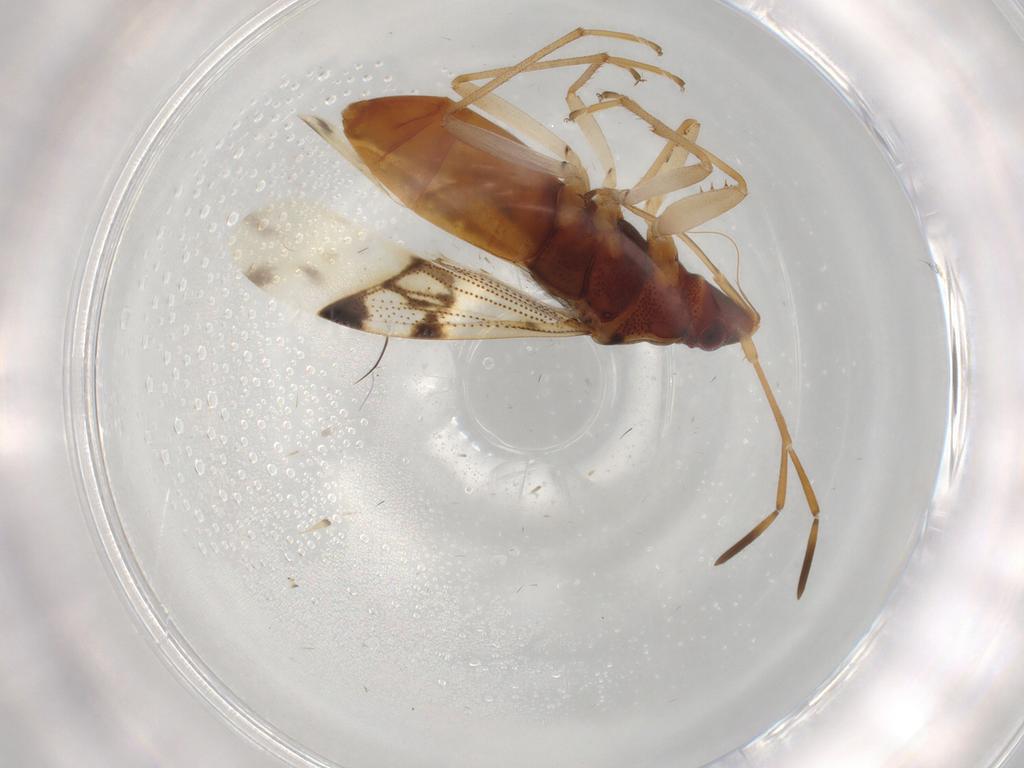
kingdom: Animalia
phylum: Arthropoda
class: Insecta
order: Hemiptera
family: Rhyparochromidae
